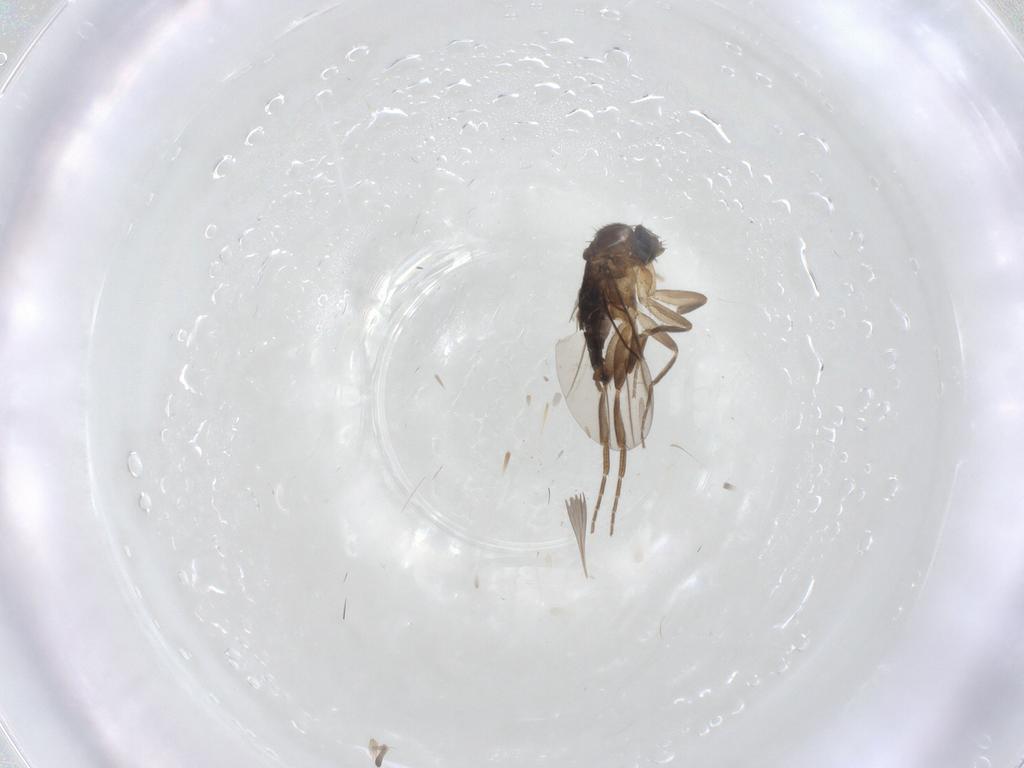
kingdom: Animalia
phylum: Arthropoda
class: Insecta
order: Diptera
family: Phoridae
